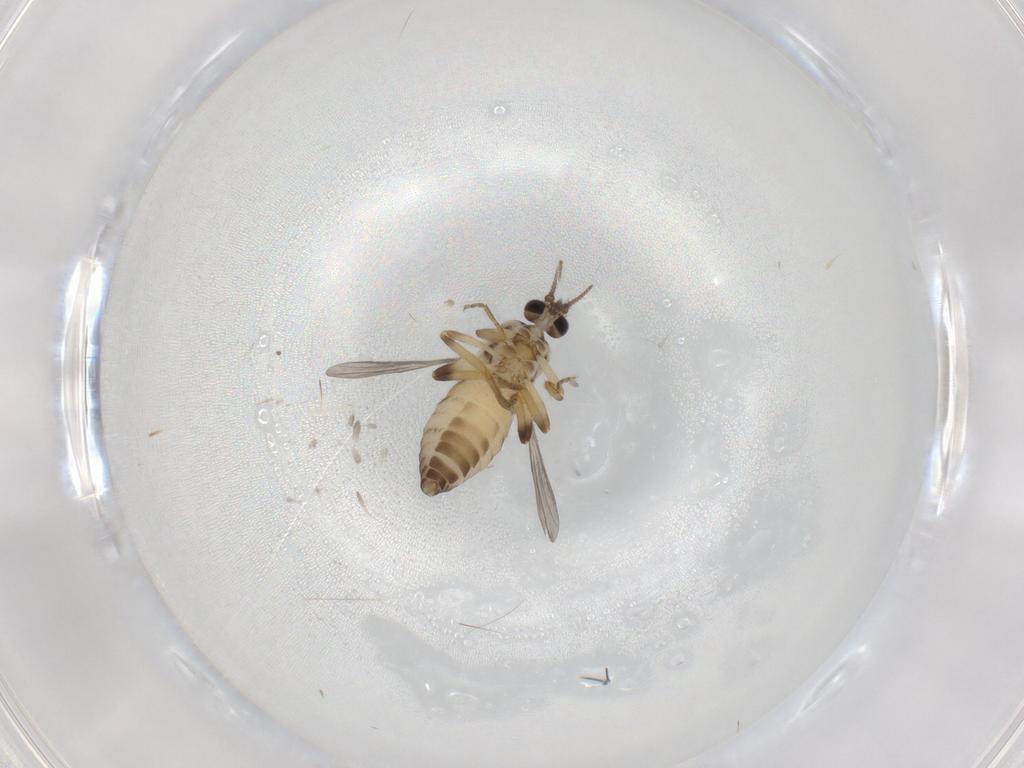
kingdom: Animalia
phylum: Arthropoda
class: Insecta
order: Diptera
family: Ceratopogonidae
